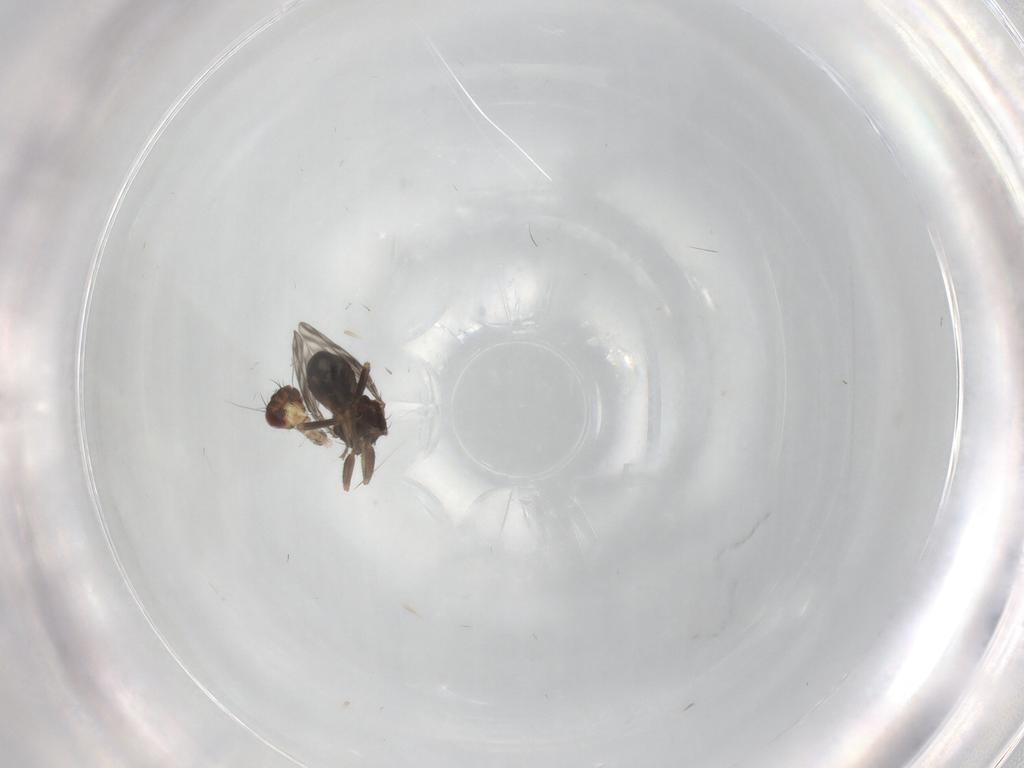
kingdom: Animalia
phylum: Arthropoda
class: Insecta
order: Diptera
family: Sphaeroceridae
